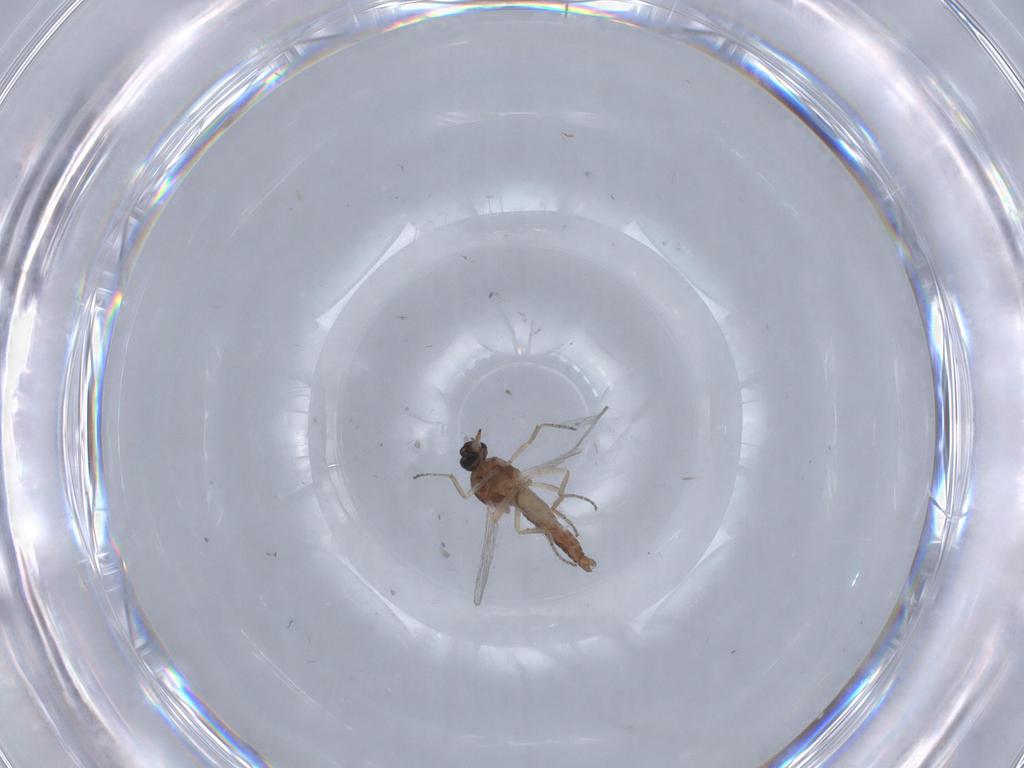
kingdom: Animalia
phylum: Arthropoda
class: Insecta
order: Diptera
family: Ceratopogonidae
